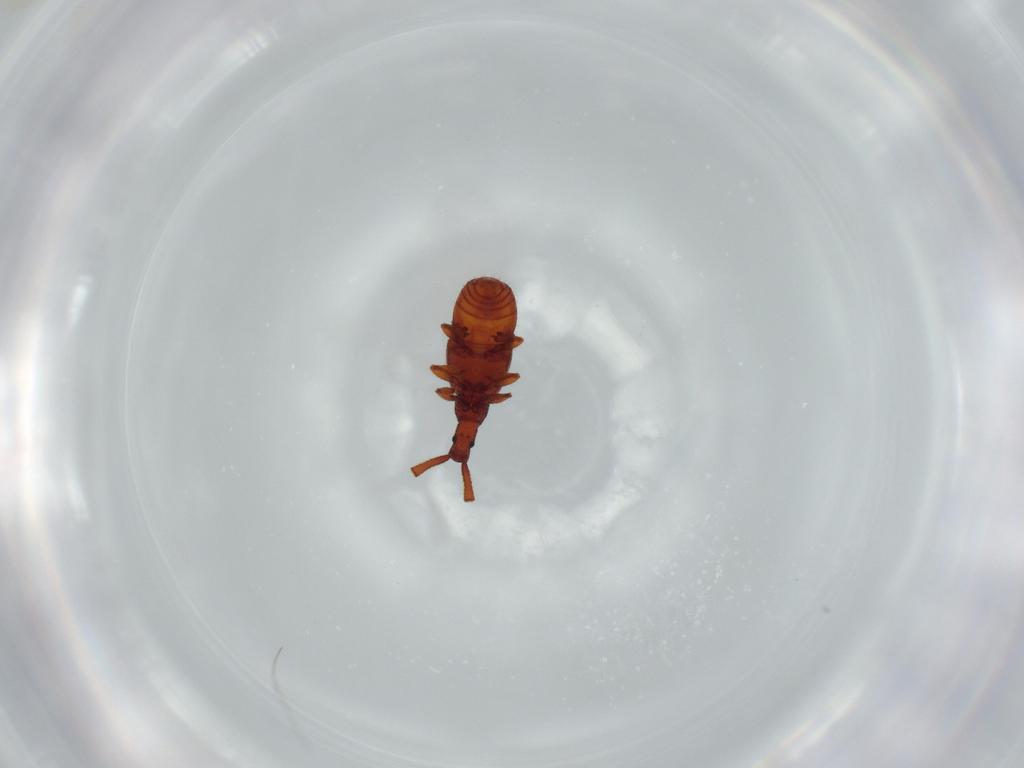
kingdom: Animalia
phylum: Arthropoda
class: Insecta
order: Coleoptera
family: Staphylinidae
